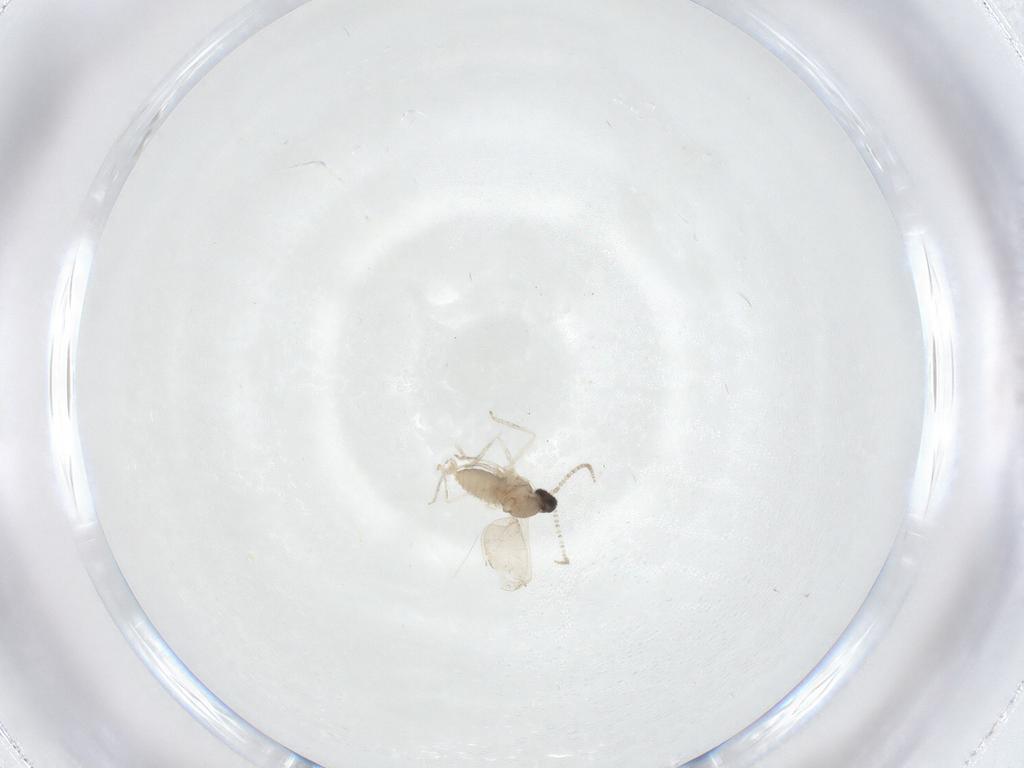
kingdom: Animalia
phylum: Arthropoda
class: Insecta
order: Diptera
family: Cecidomyiidae
